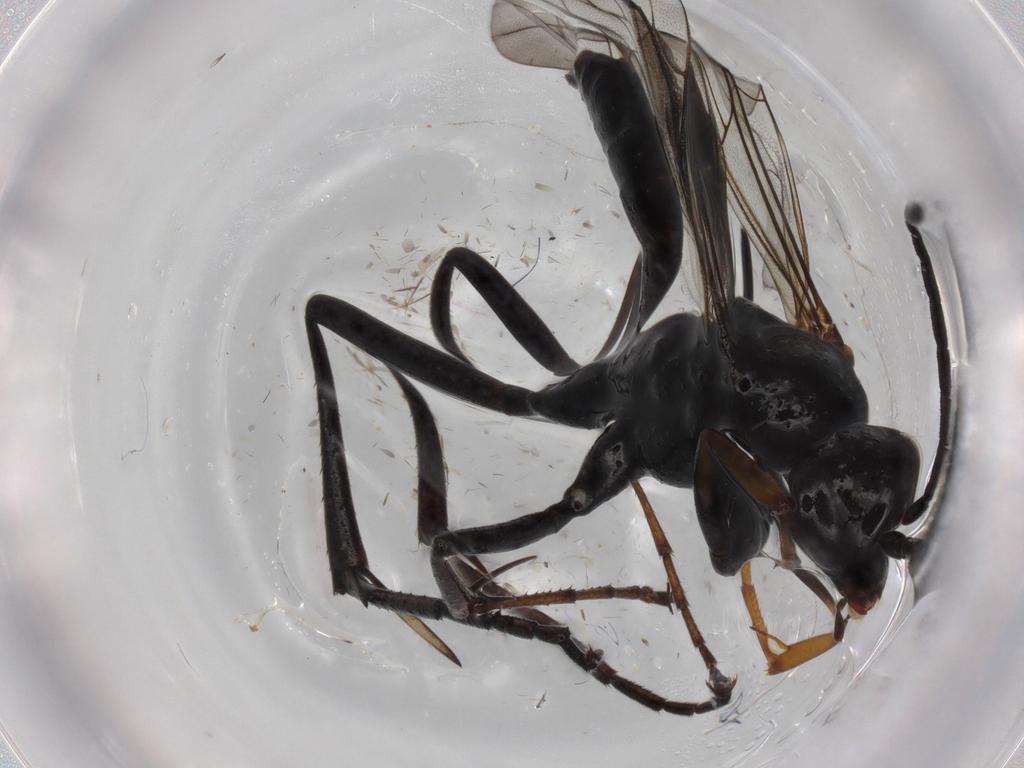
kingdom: Animalia
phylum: Arthropoda
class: Insecta
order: Hymenoptera
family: Pompilidae
